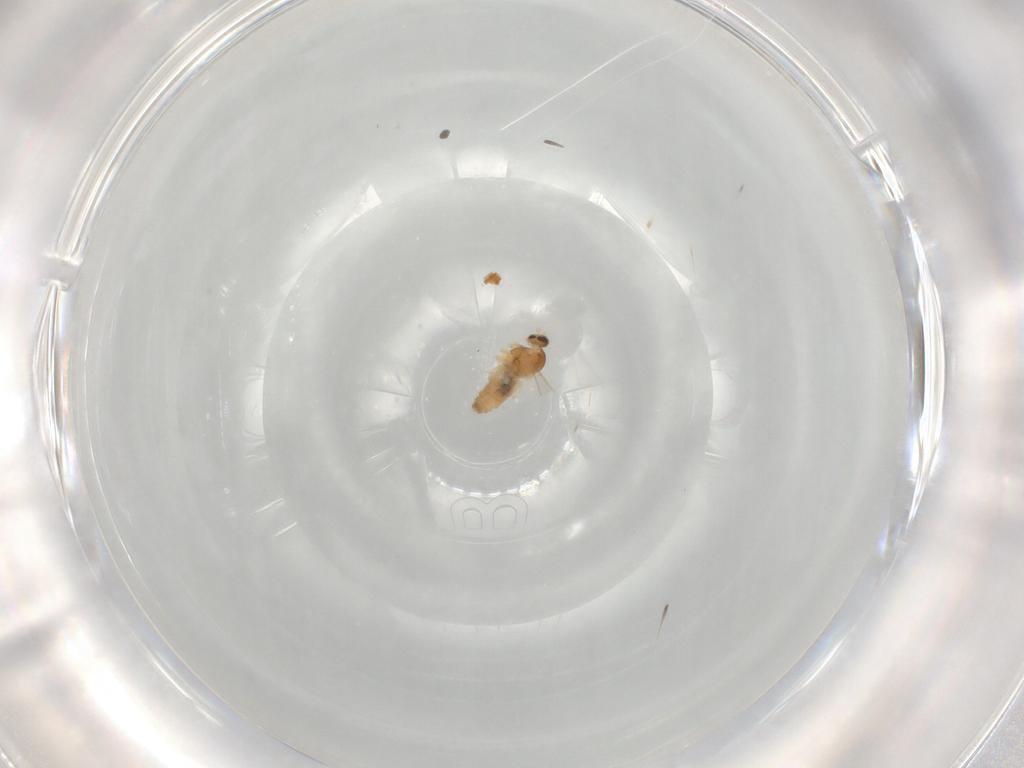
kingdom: Animalia
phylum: Arthropoda
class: Insecta
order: Diptera
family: Cecidomyiidae
